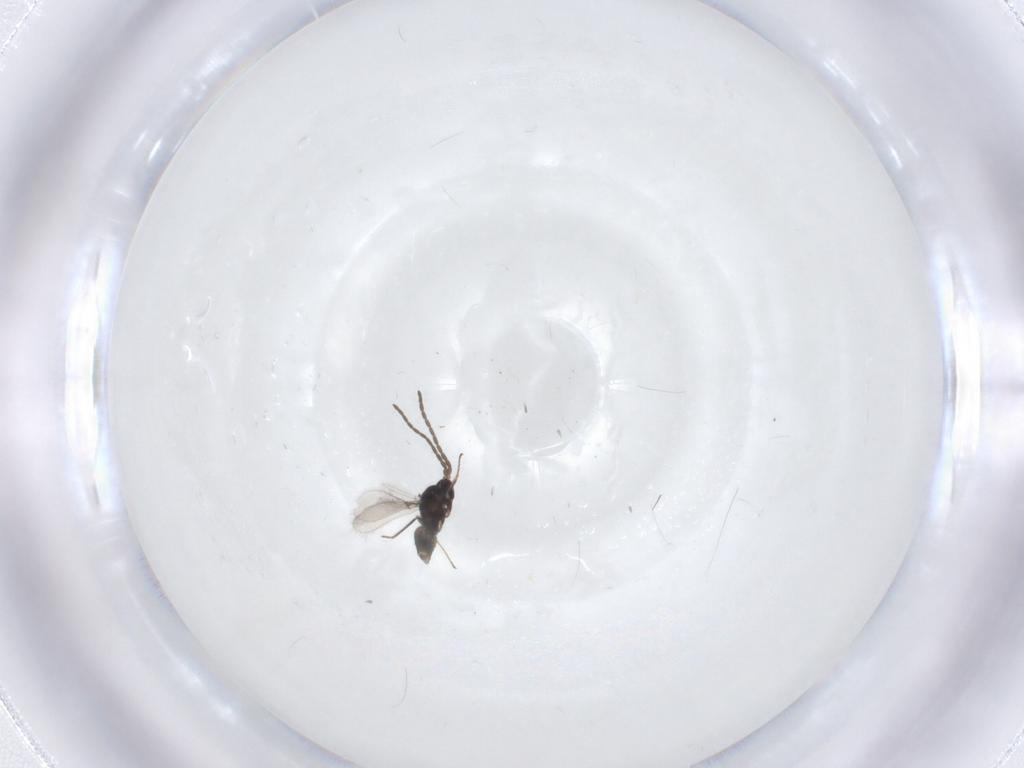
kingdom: Animalia
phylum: Arthropoda
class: Insecta
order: Hymenoptera
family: Mymaridae
